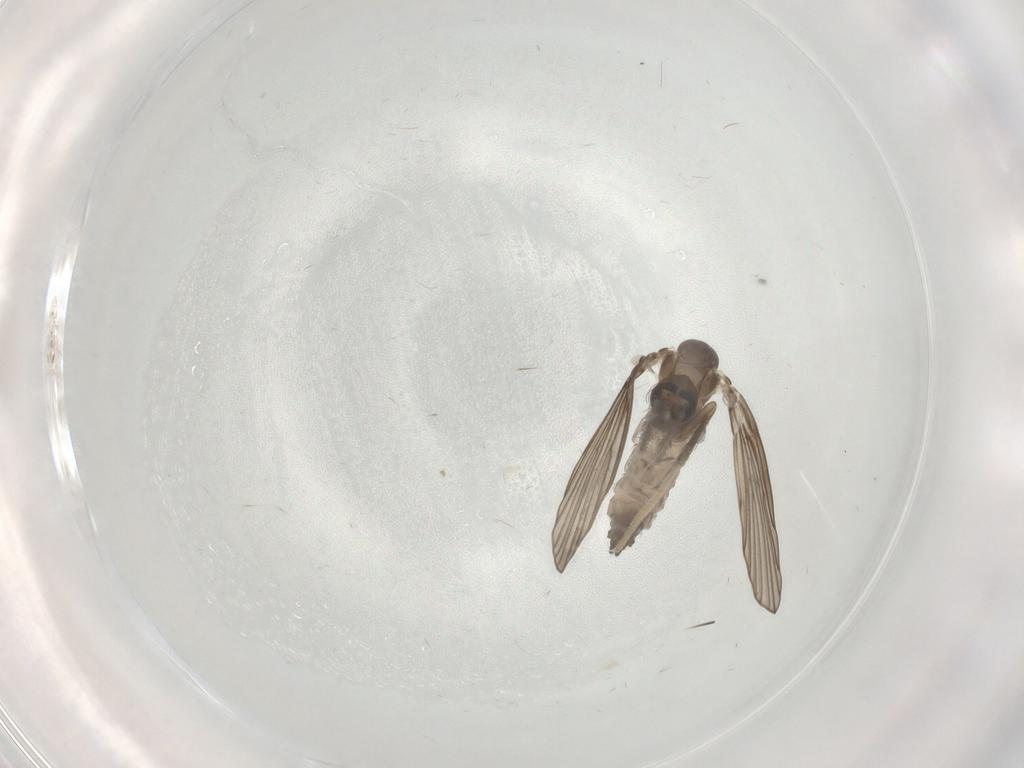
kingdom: Animalia
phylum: Arthropoda
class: Insecta
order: Diptera
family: Psychodidae
